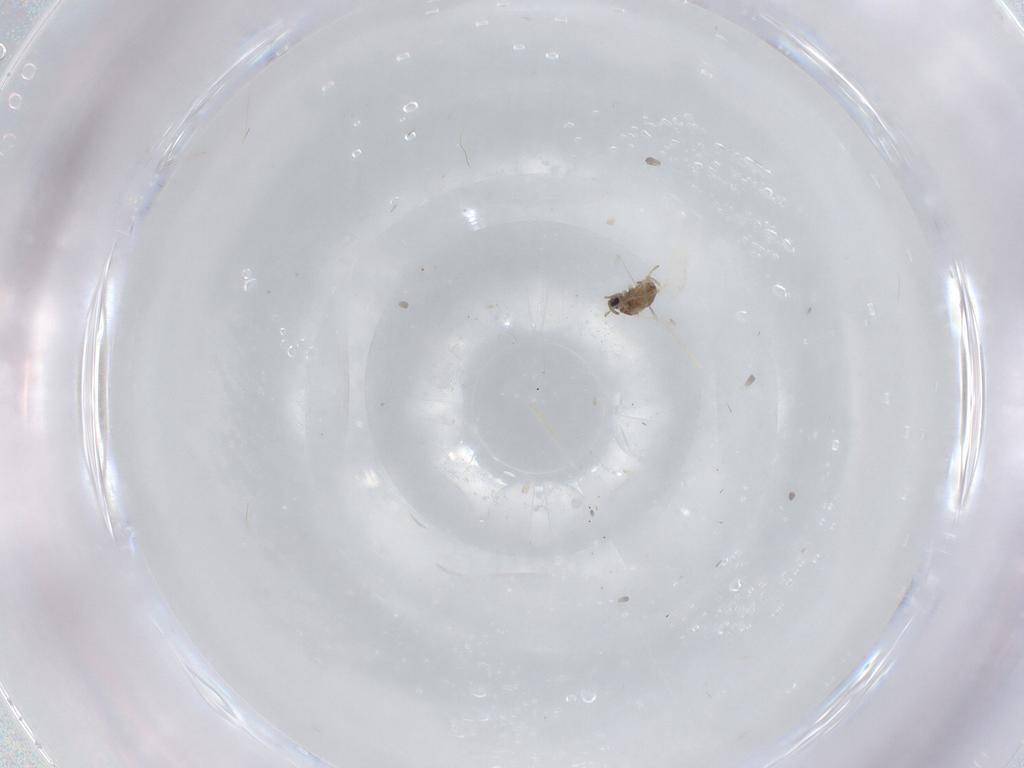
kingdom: Animalia
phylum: Arthropoda
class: Insecta
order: Diptera
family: Cecidomyiidae
